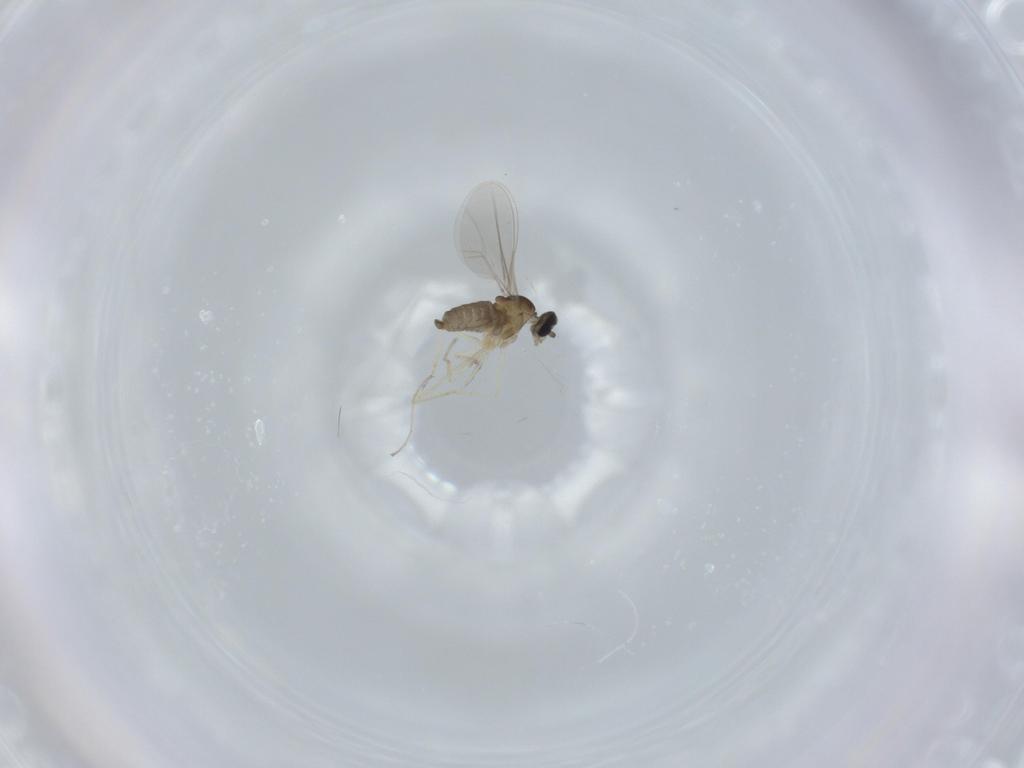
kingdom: Animalia
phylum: Arthropoda
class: Insecta
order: Diptera
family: Cecidomyiidae
